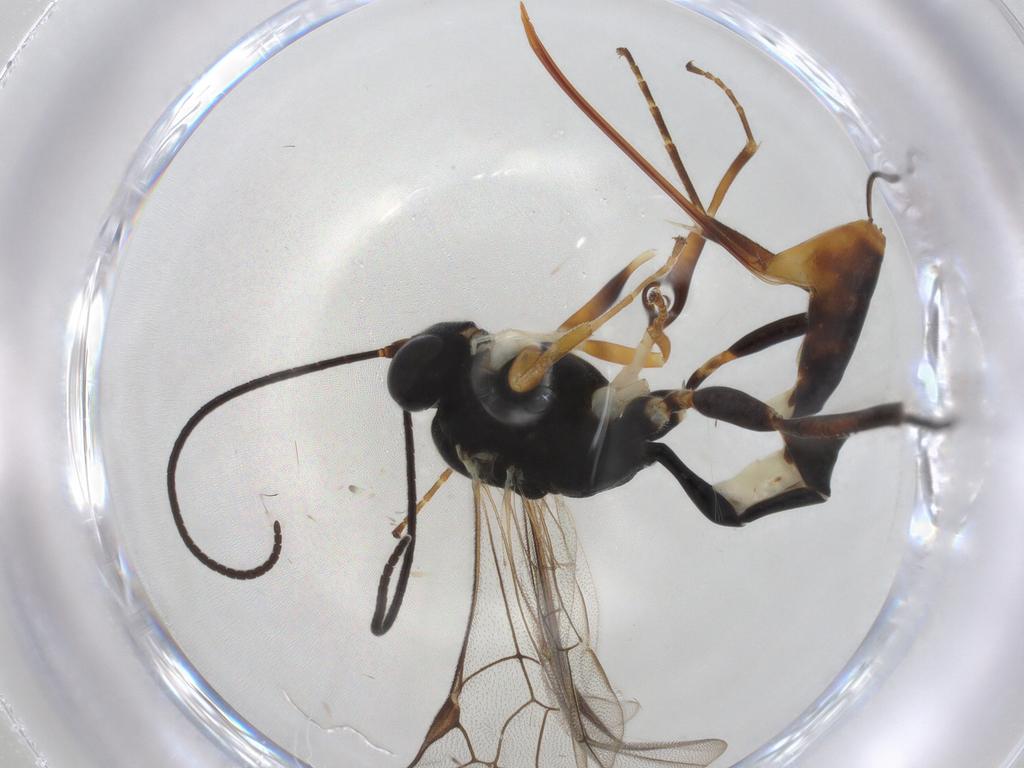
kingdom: Animalia
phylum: Arthropoda
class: Insecta
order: Hymenoptera
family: Ichneumonidae
